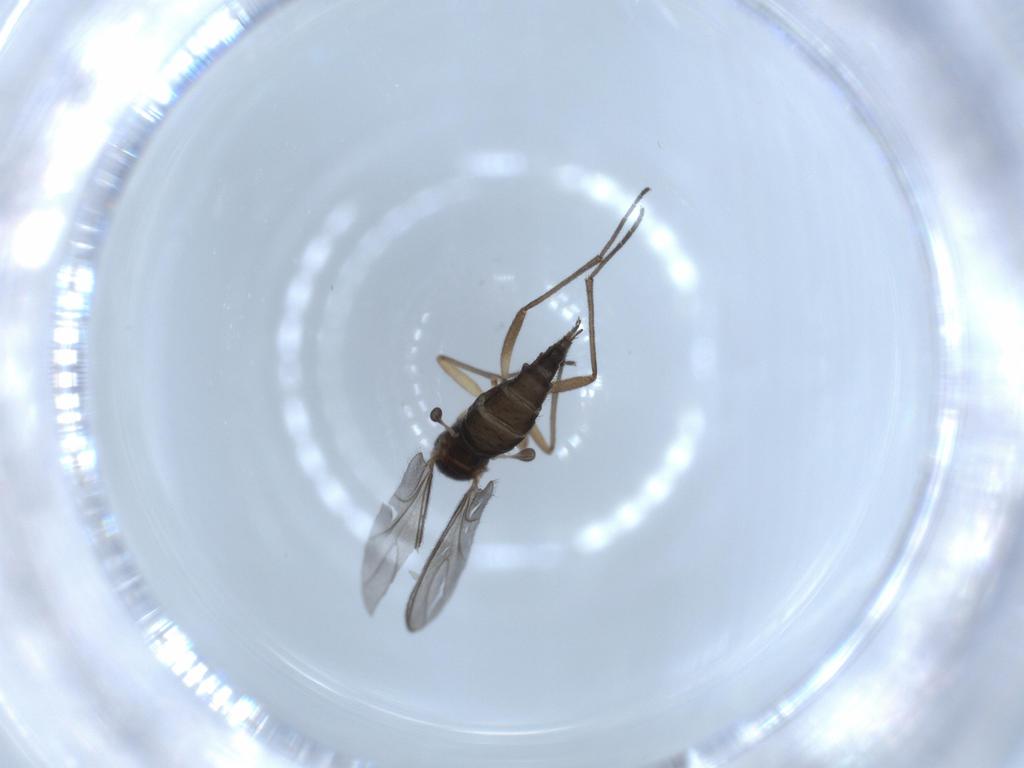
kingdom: Animalia
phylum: Arthropoda
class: Insecta
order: Diptera
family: Sciaridae
